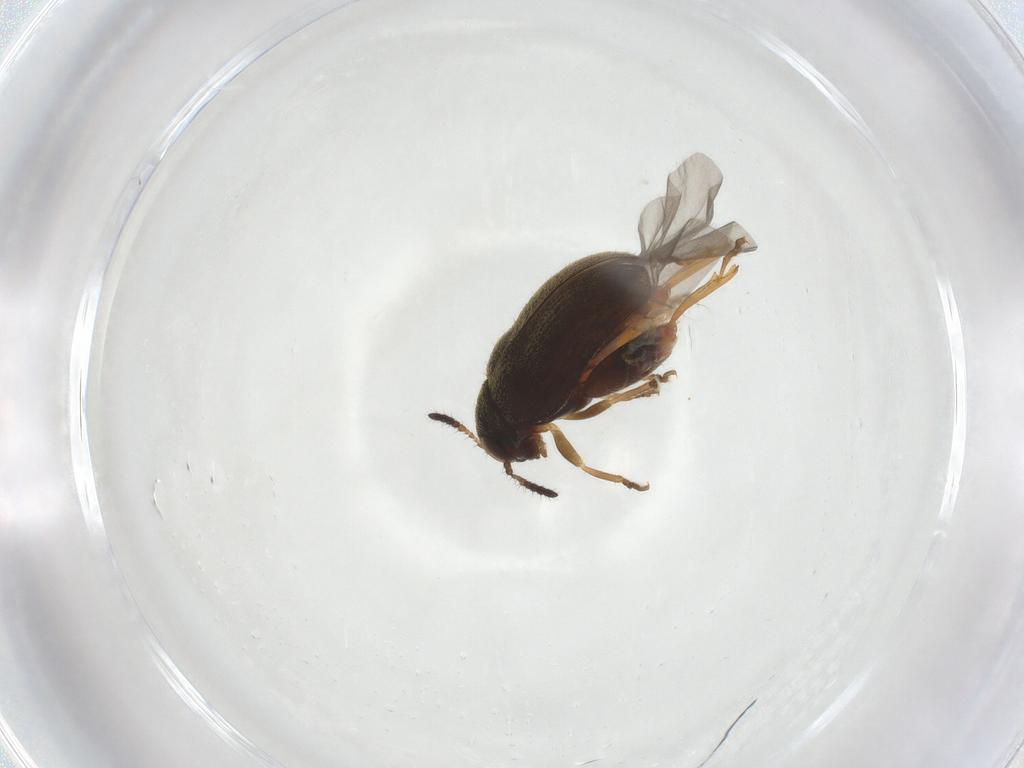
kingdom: Animalia
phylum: Arthropoda
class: Insecta
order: Coleoptera
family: Chrysomelidae
